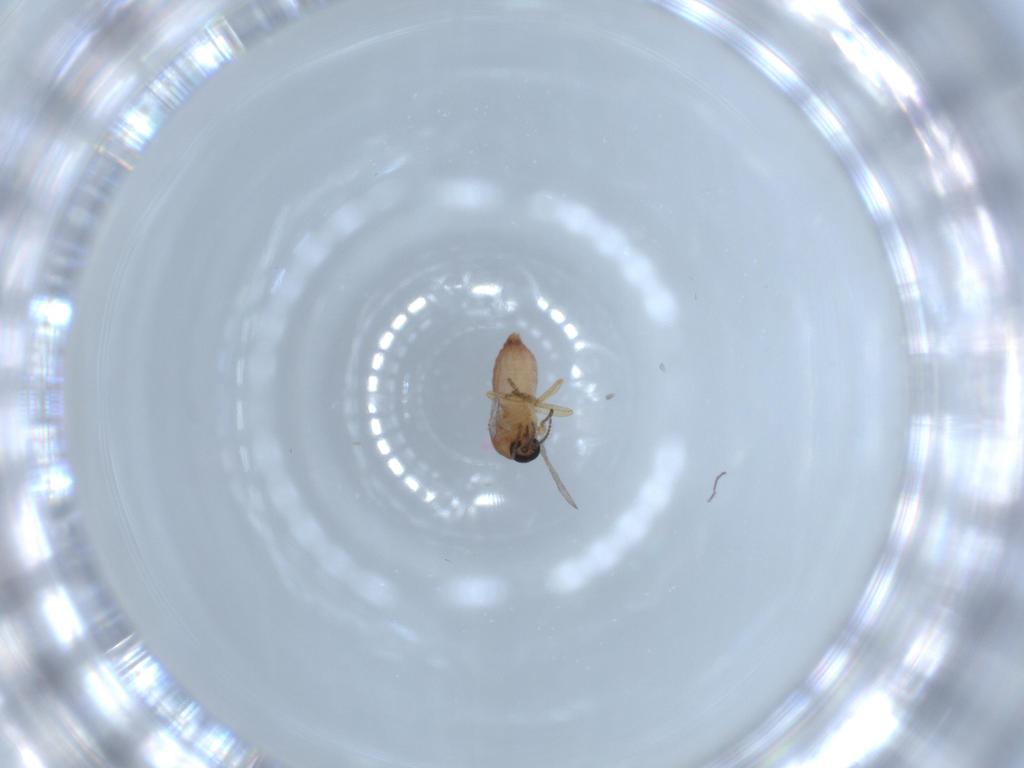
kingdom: Animalia
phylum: Arthropoda
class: Insecta
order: Diptera
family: Ceratopogonidae
